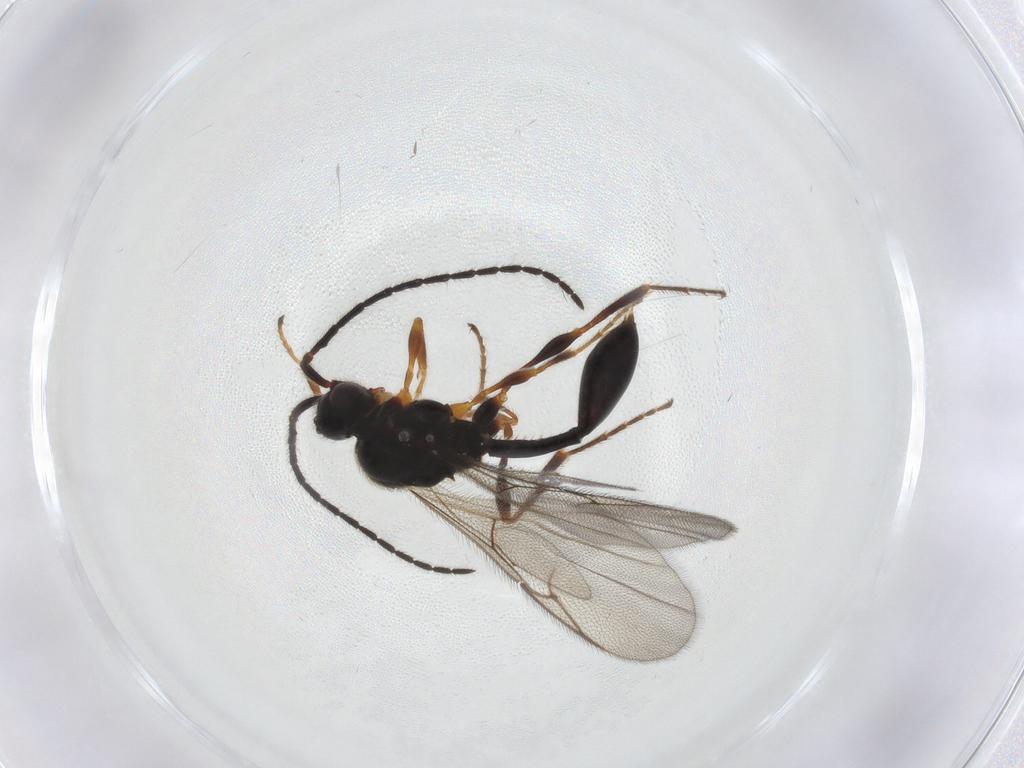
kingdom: Animalia
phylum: Arthropoda
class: Insecta
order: Hymenoptera
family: Diapriidae
